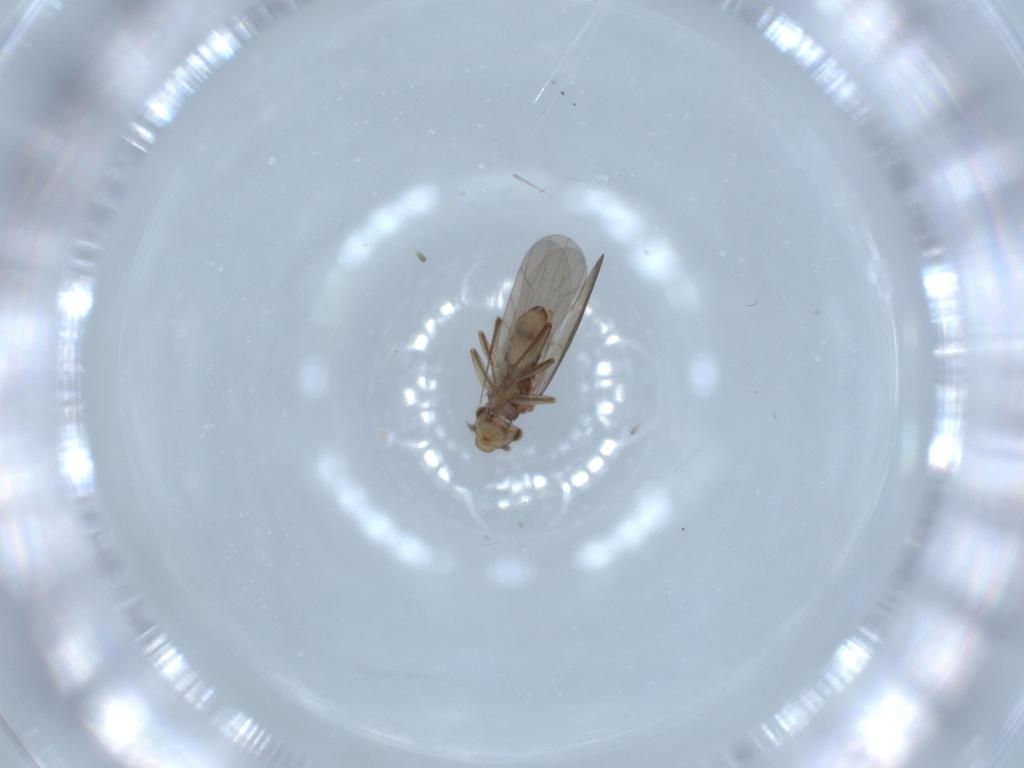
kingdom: Animalia
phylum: Arthropoda
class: Insecta
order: Psocodea
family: Lepidopsocidae
